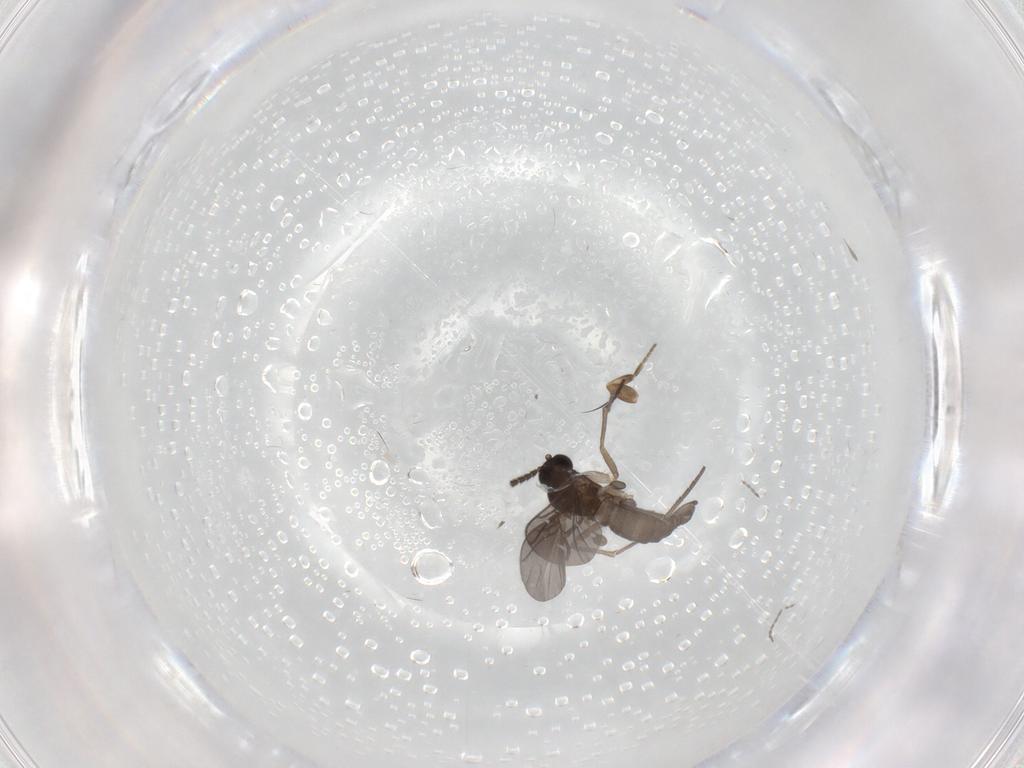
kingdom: Animalia
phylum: Arthropoda
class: Insecta
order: Diptera
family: Sciaridae
